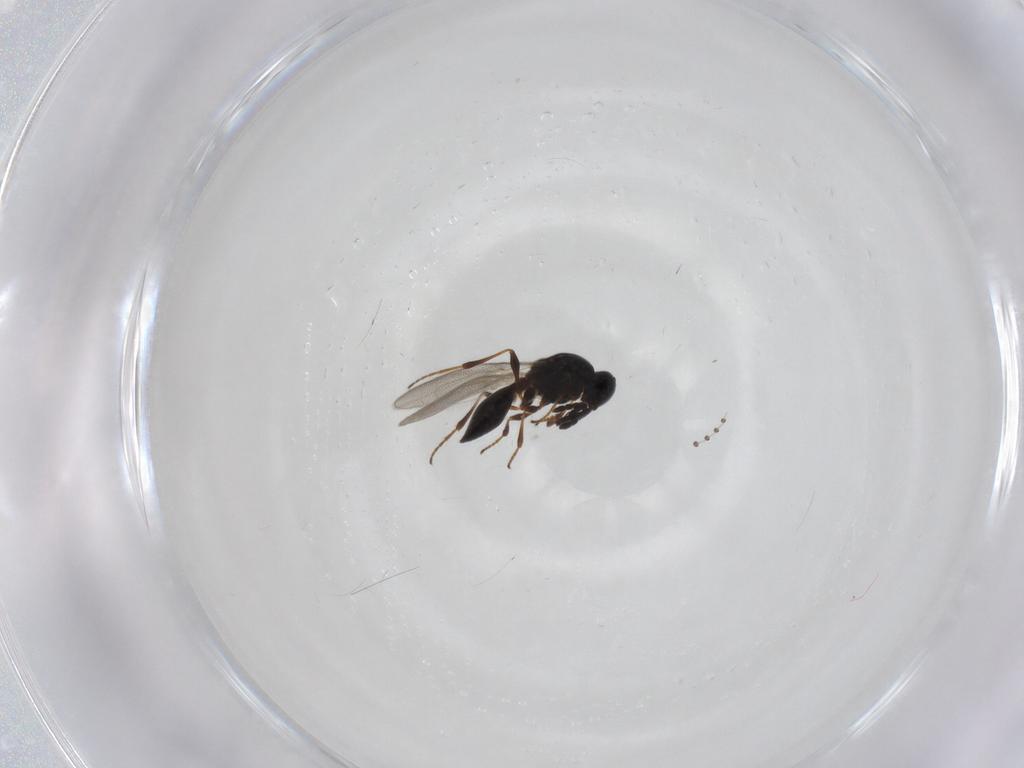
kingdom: Animalia
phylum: Arthropoda
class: Insecta
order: Hymenoptera
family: Platygastridae
